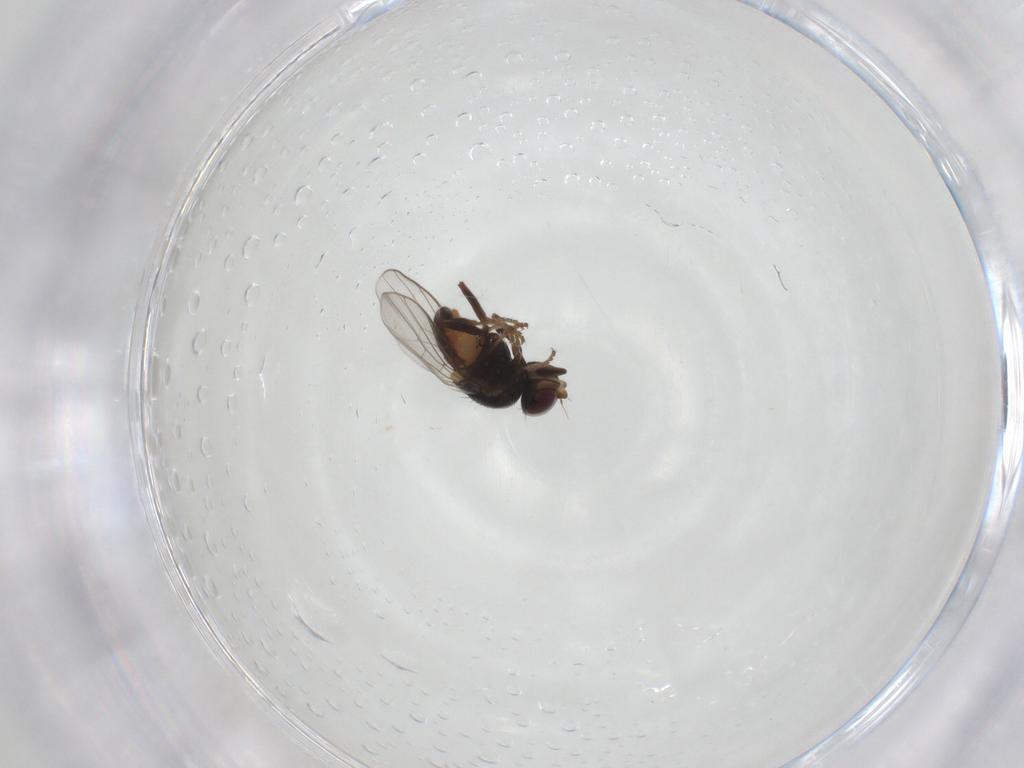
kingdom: Animalia
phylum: Arthropoda
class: Insecta
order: Diptera
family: Chloropidae
